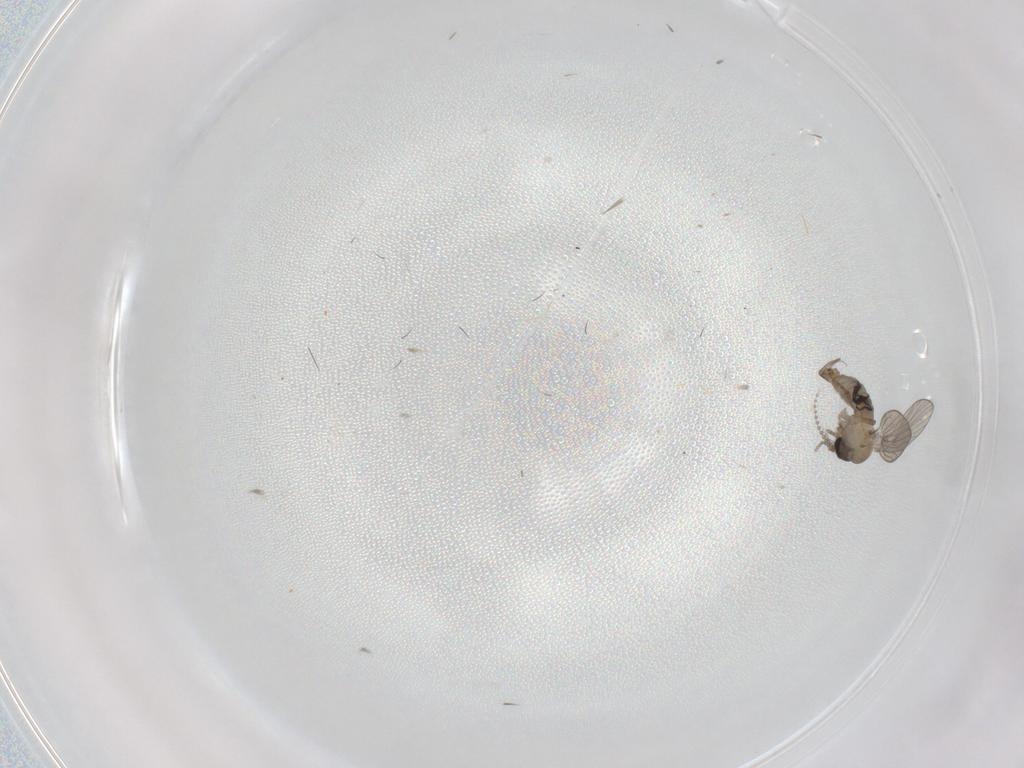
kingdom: Animalia
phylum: Arthropoda
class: Insecta
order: Diptera
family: Psychodidae
